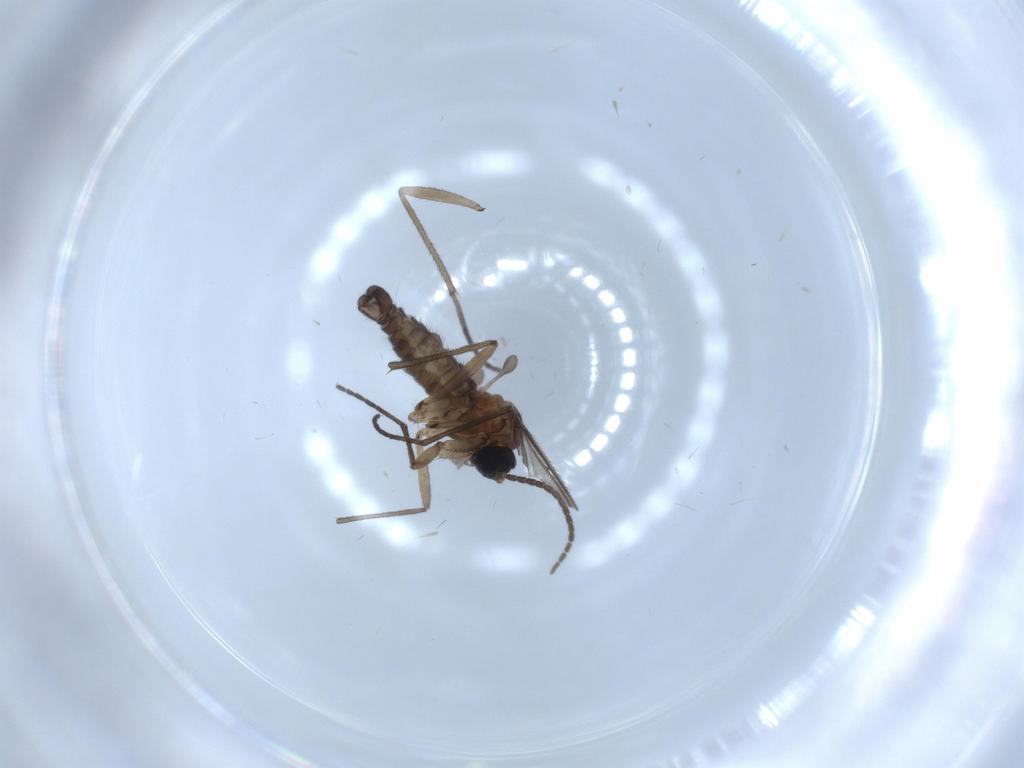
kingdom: Animalia
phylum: Arthropoda
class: Insecta
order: Diptera
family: Sciaridae
